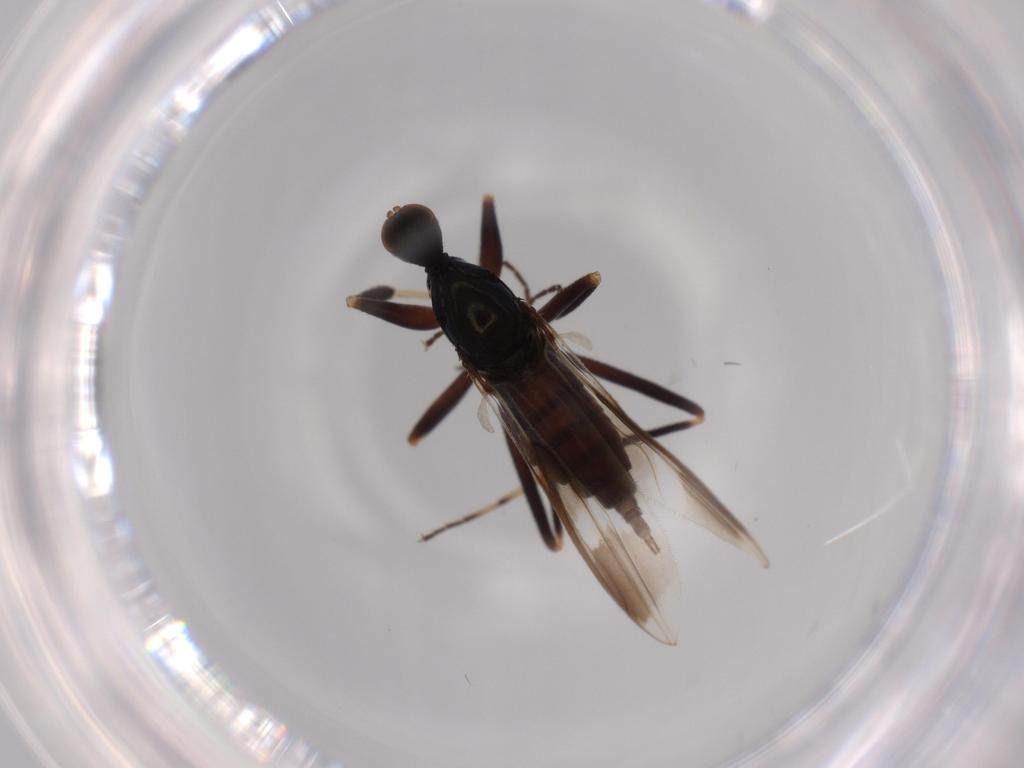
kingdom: Animalia
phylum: Arthropoda
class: Insecta
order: Diptera
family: Hybotidae
